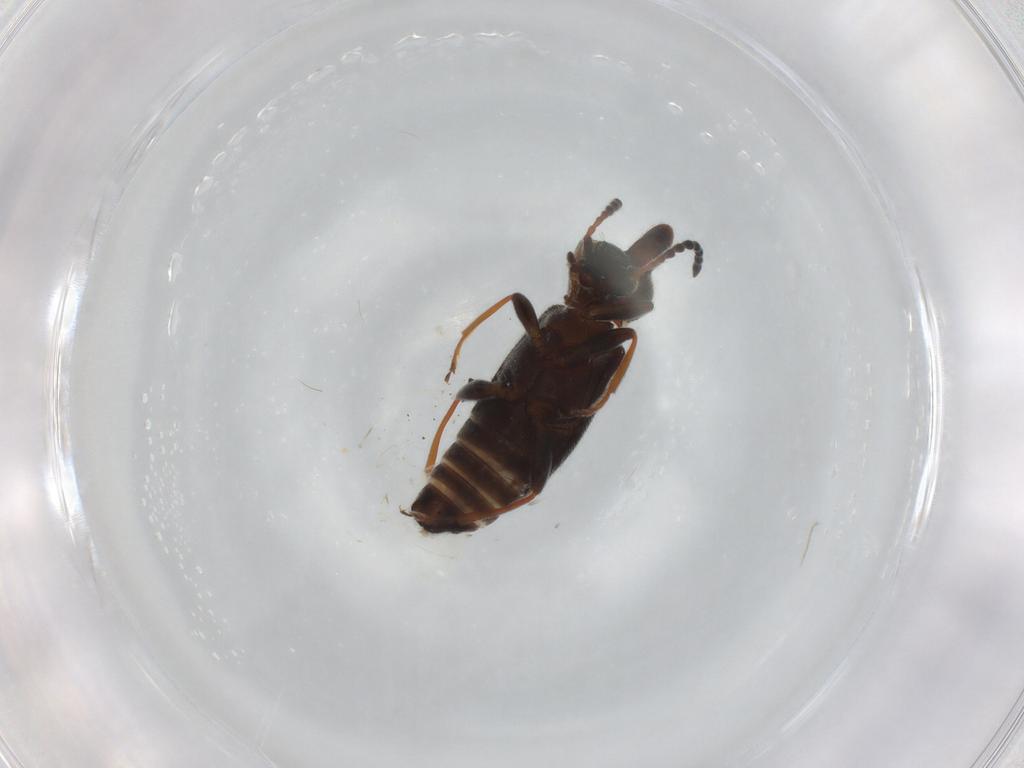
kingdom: Animalia
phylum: Arthropoda
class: Insecta
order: Coleoptera
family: Anthicidae
